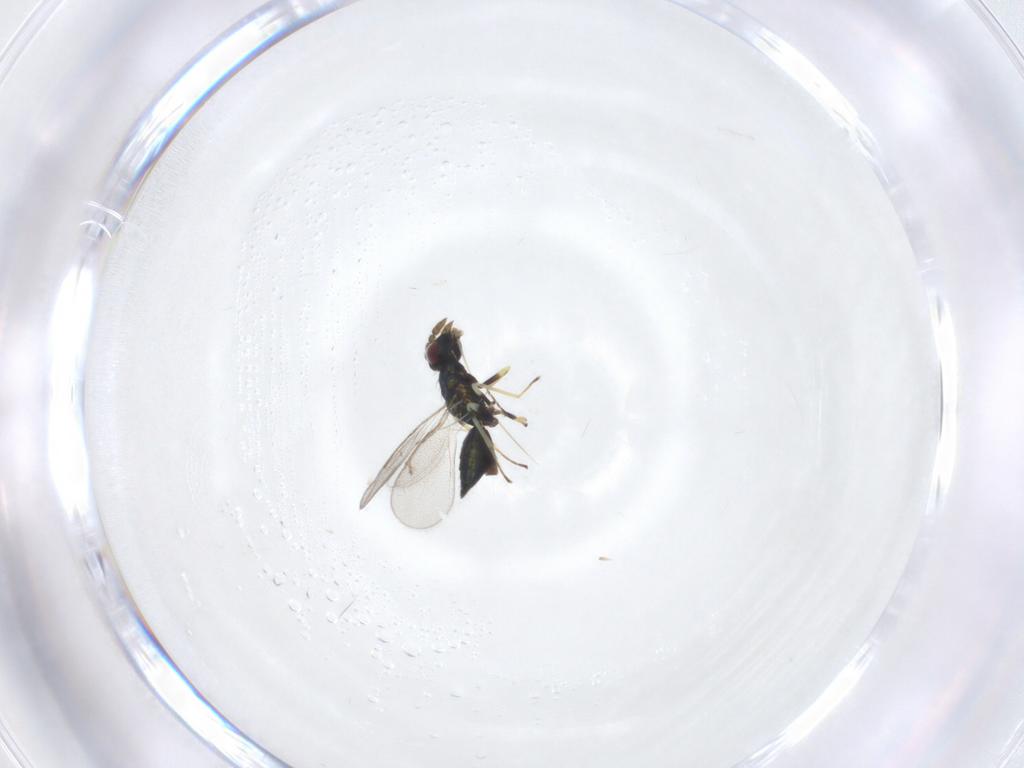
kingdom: Animalia
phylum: Arthropoda
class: Insecta
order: Hymenoptera
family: Eulophidae
